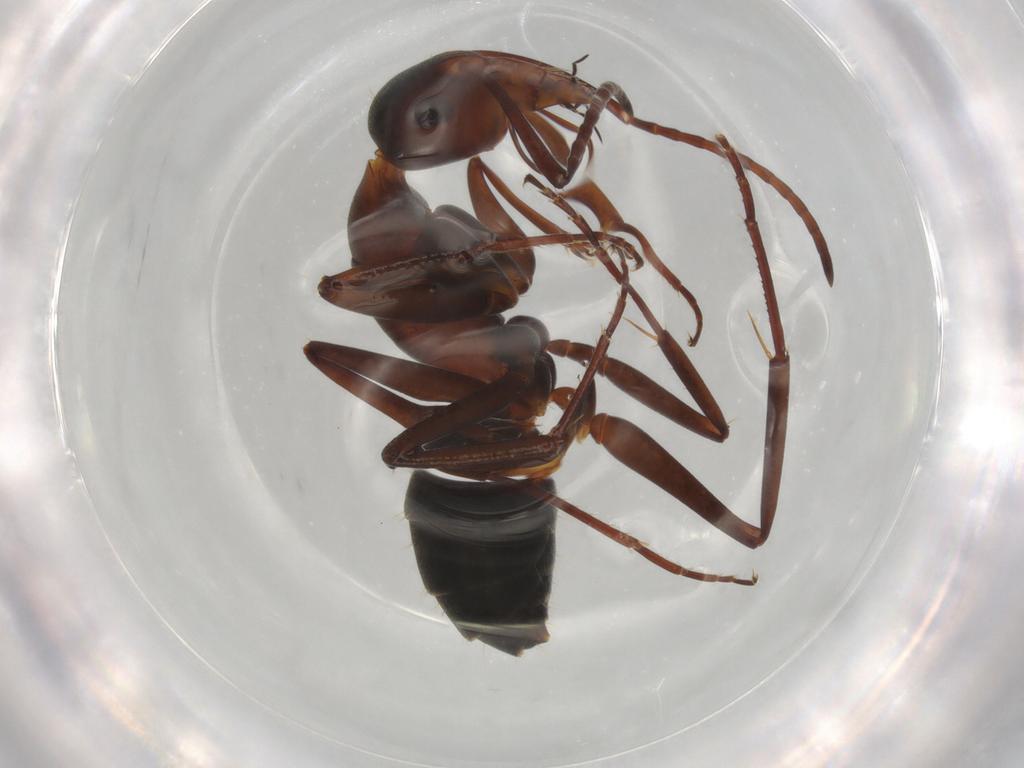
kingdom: Animalia
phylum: Arthropoda
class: Insecta
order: Hymenoptera
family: Formicidae
